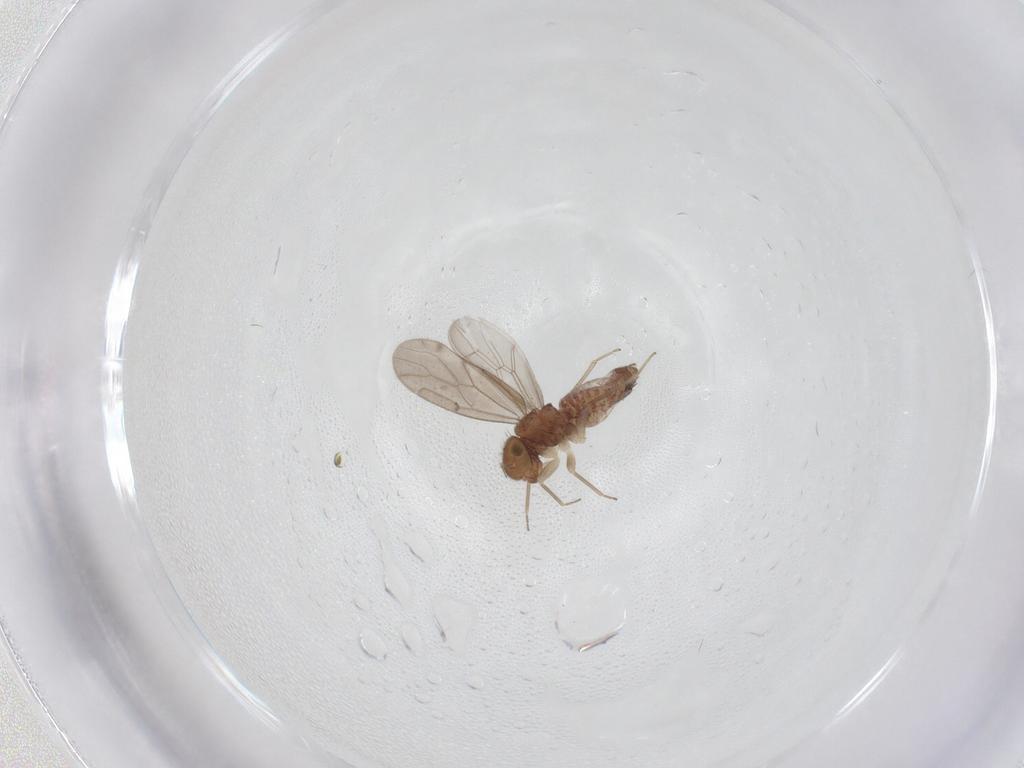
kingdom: Animalia
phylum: Arthropoda
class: Insecta
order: Psocodea
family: Ectopsocidae
